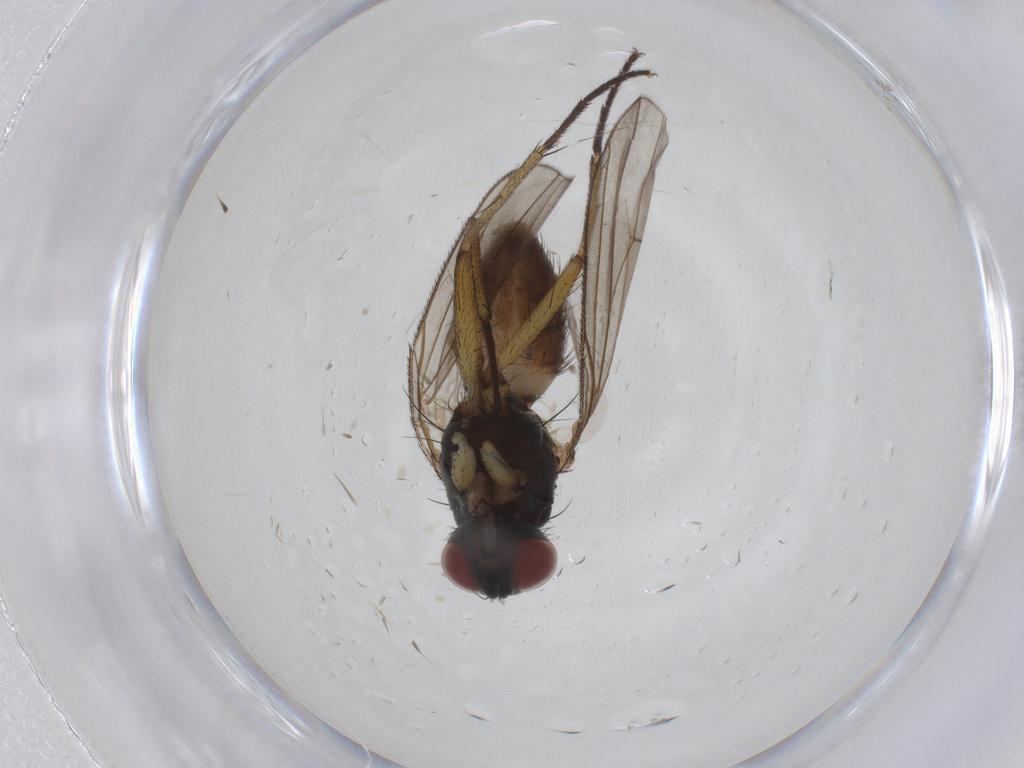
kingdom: Animalia
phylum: Arthropoda
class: Insecta
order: Diptera
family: Muscidae
